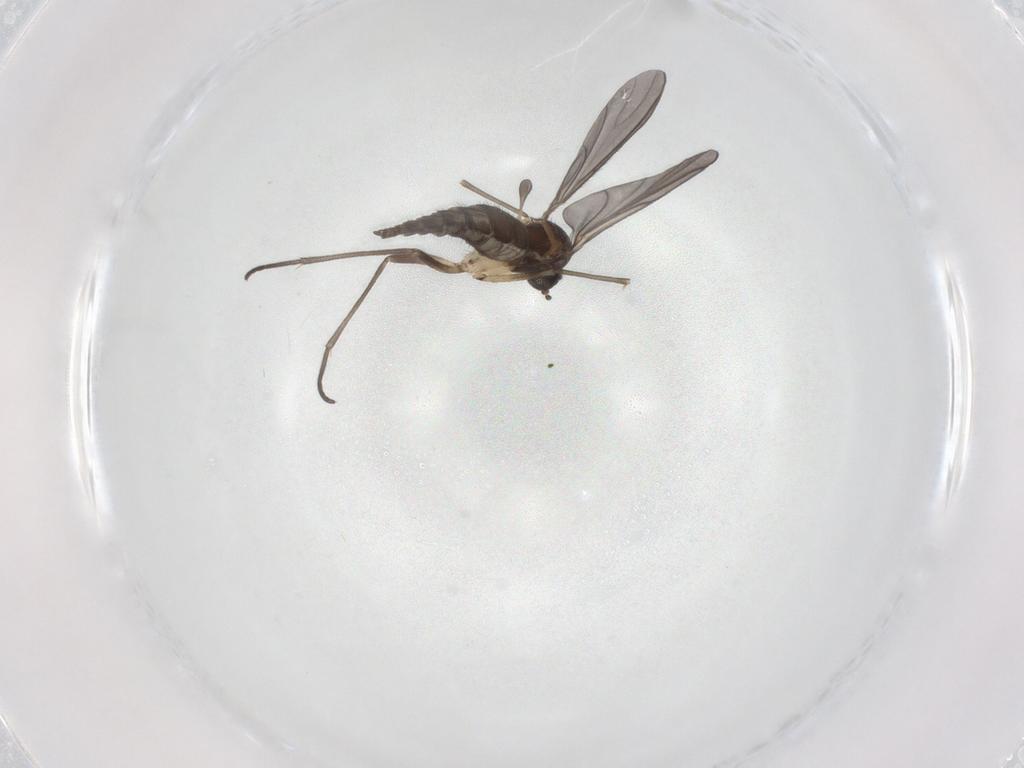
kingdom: Animalia
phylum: Arthropoda
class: Insecta
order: Diptera
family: Sciaridae
